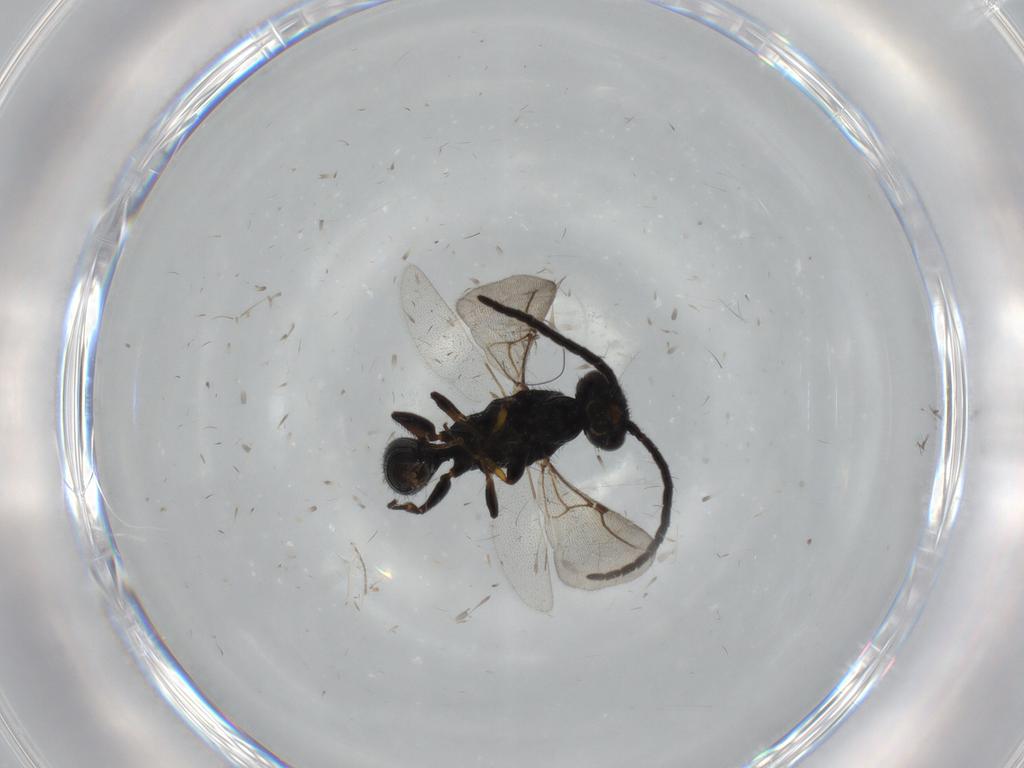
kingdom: Animalia
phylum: Arthropoda
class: Insecta
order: Hymenoptera
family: Bethylidae
